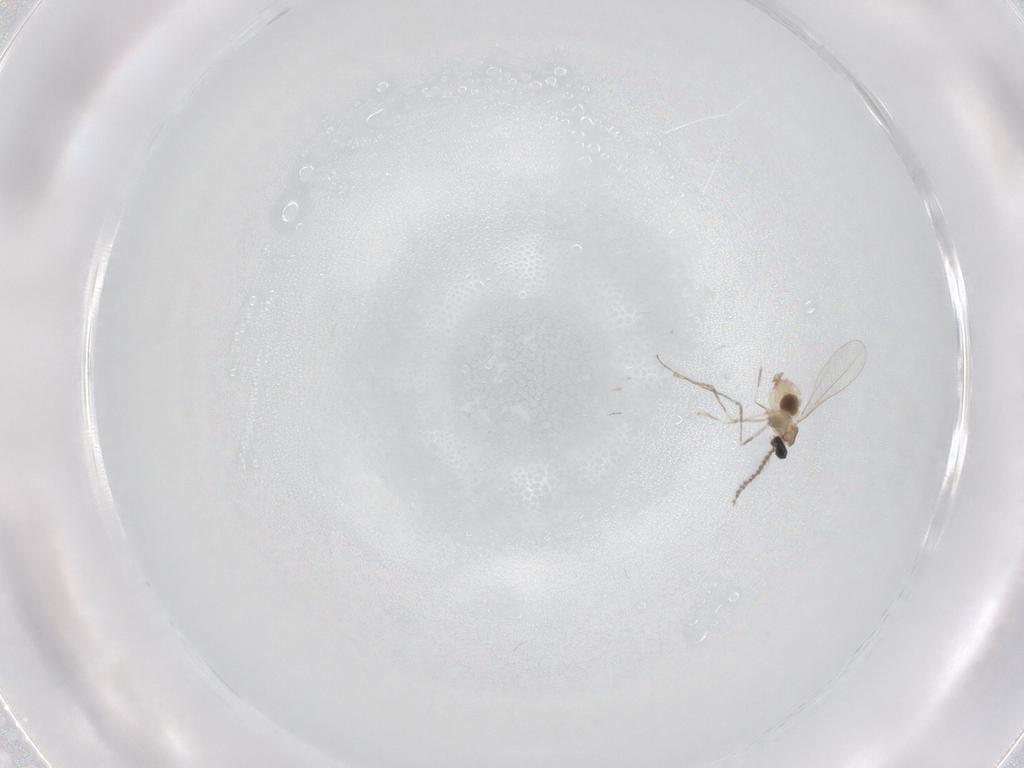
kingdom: Animalia
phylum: Arthropoda
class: Insecta
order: Diptera
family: Cecidomyiidae
